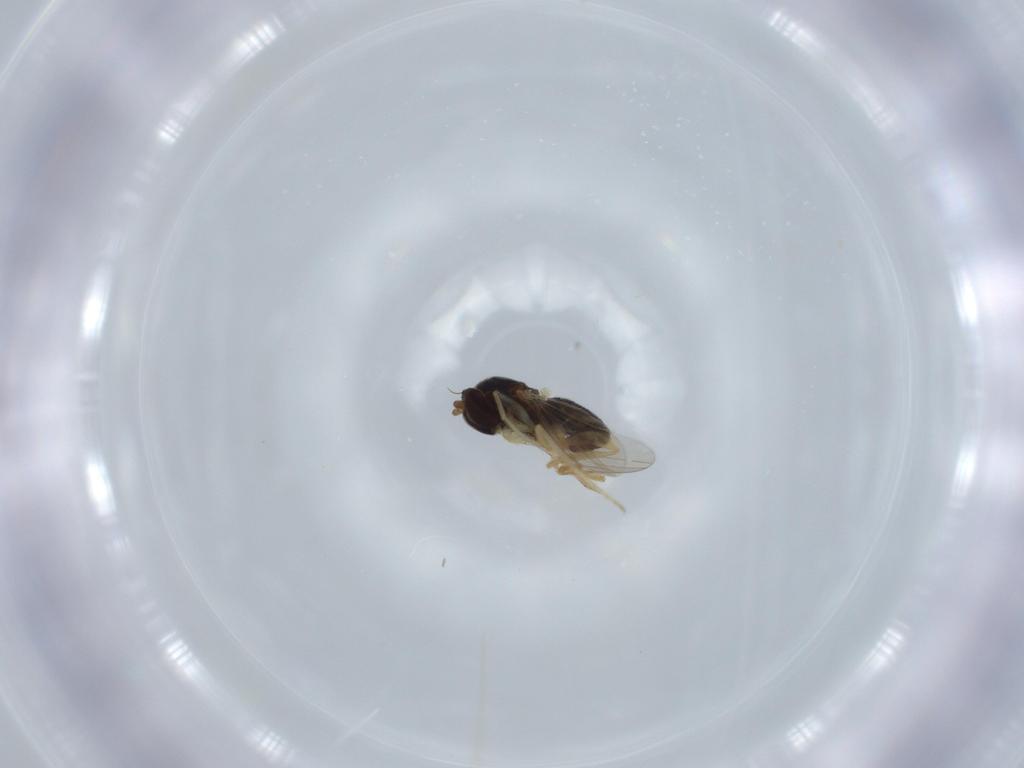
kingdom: Animalia
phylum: Arthropoda
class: Insecta
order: Diptera
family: Dolichopodidae
